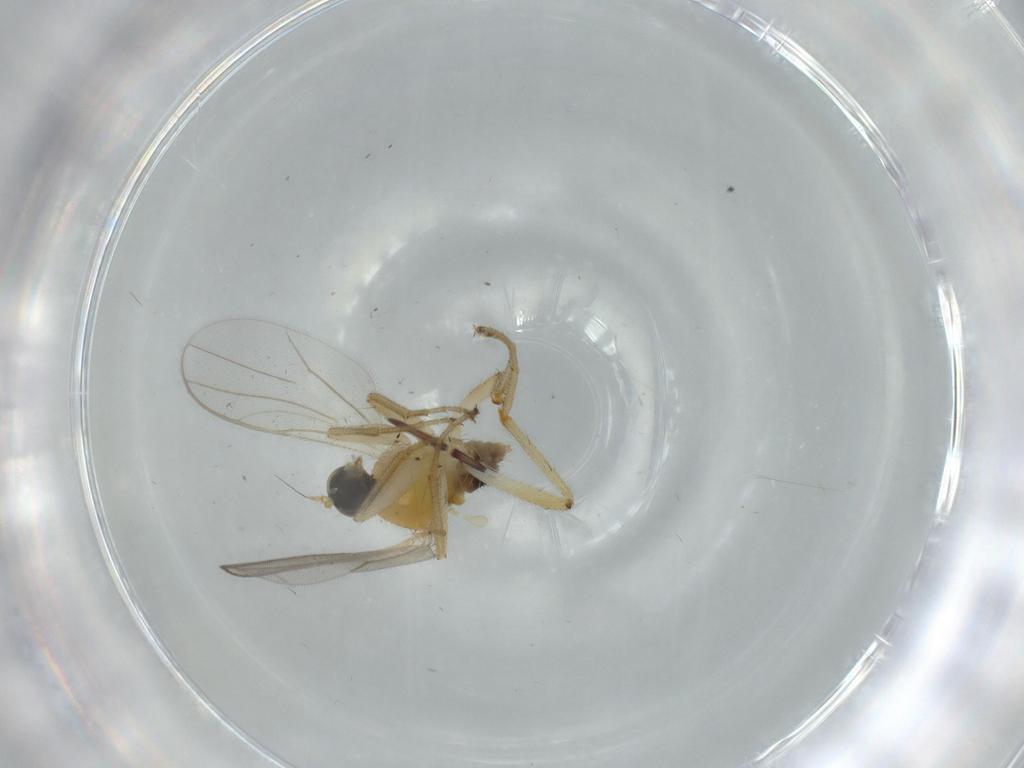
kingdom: Animalia
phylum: Arthropoda
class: Insecta
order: Diptera
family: Hybotidae
